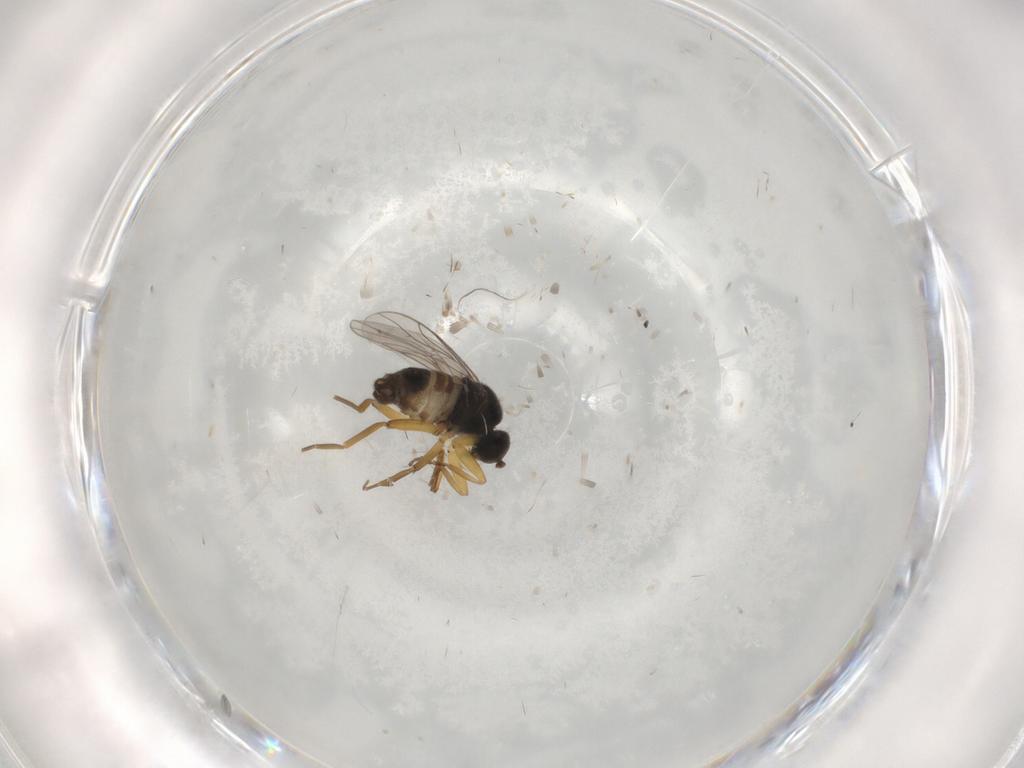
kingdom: Animalia
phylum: Arthropoda
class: Insecta
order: Diptera
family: Hybotidae
